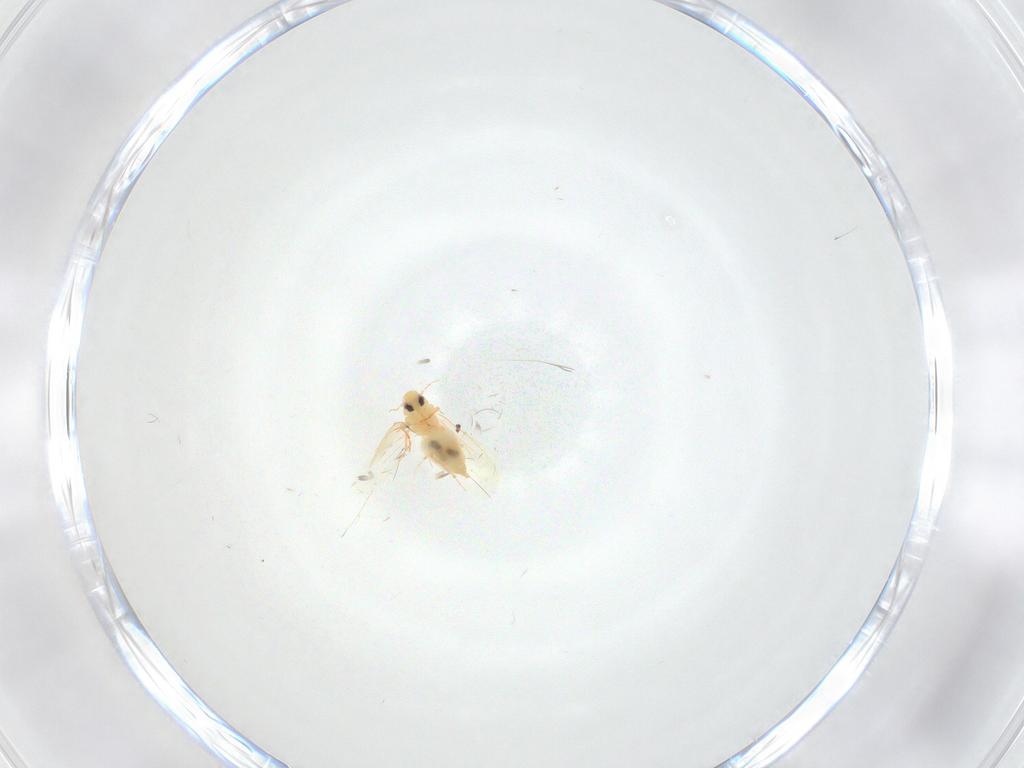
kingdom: Animalia
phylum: Arthropoda
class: Insecta
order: Hemiptera
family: Aleyrodidae
